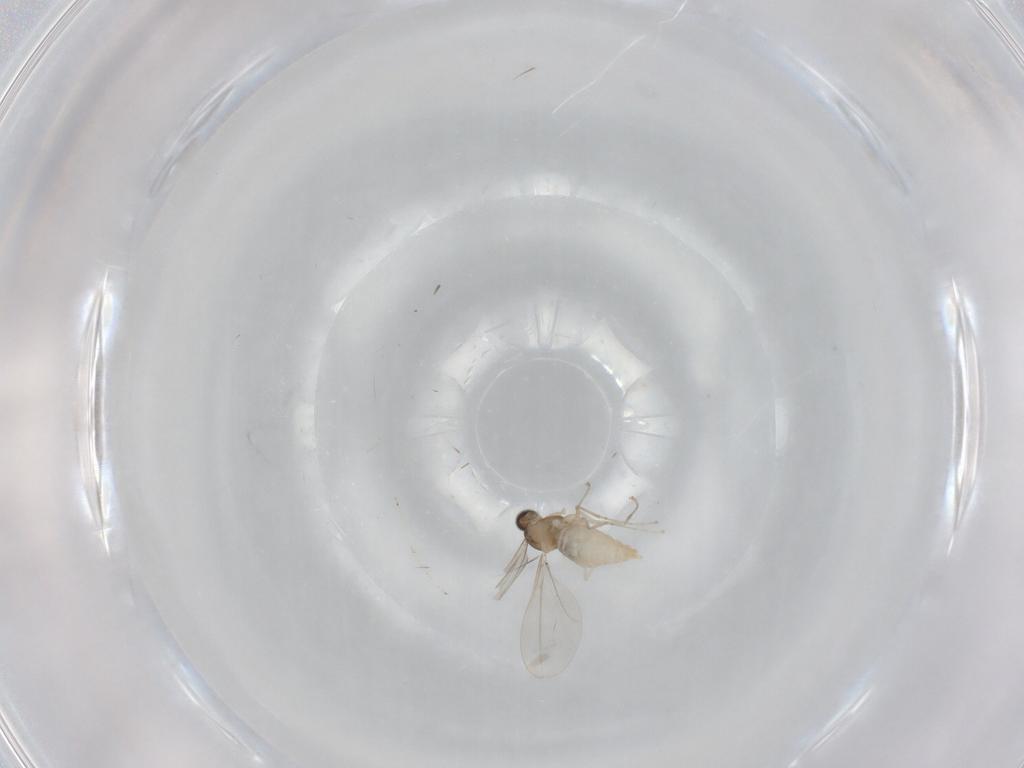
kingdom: Animalia
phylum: Arthropoda
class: Insecta
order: Diptera
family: Cecidomyiidae
